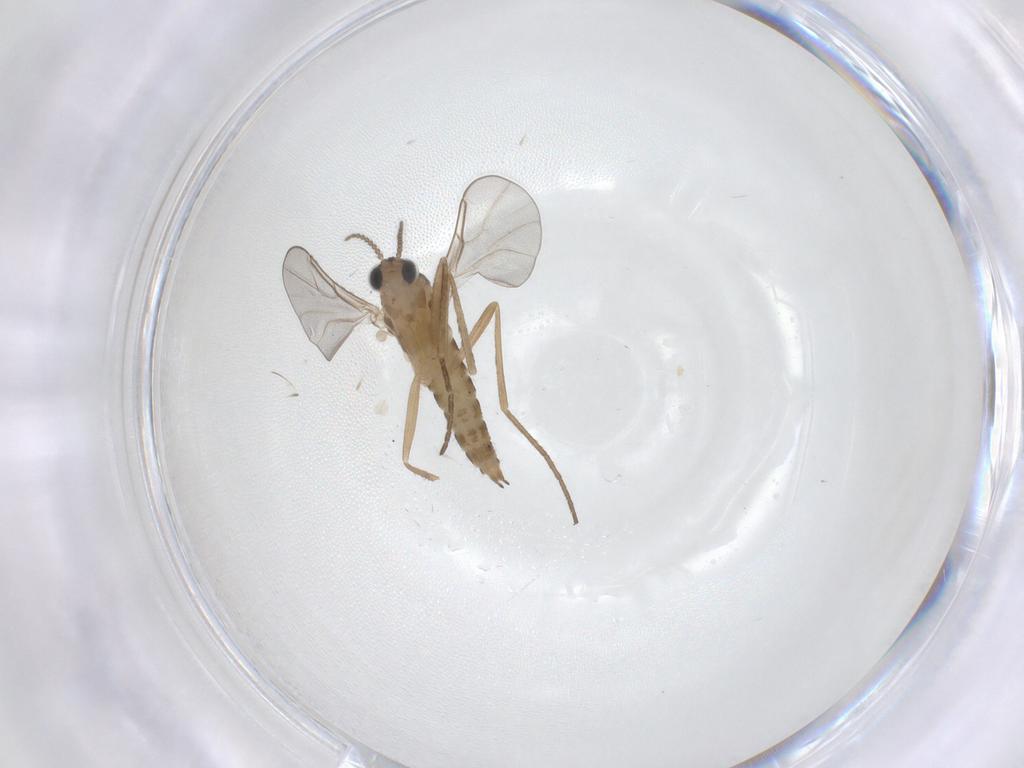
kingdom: Animalia
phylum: Arthropoda
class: Insecta
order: Diptera
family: Cecidomyiidae
